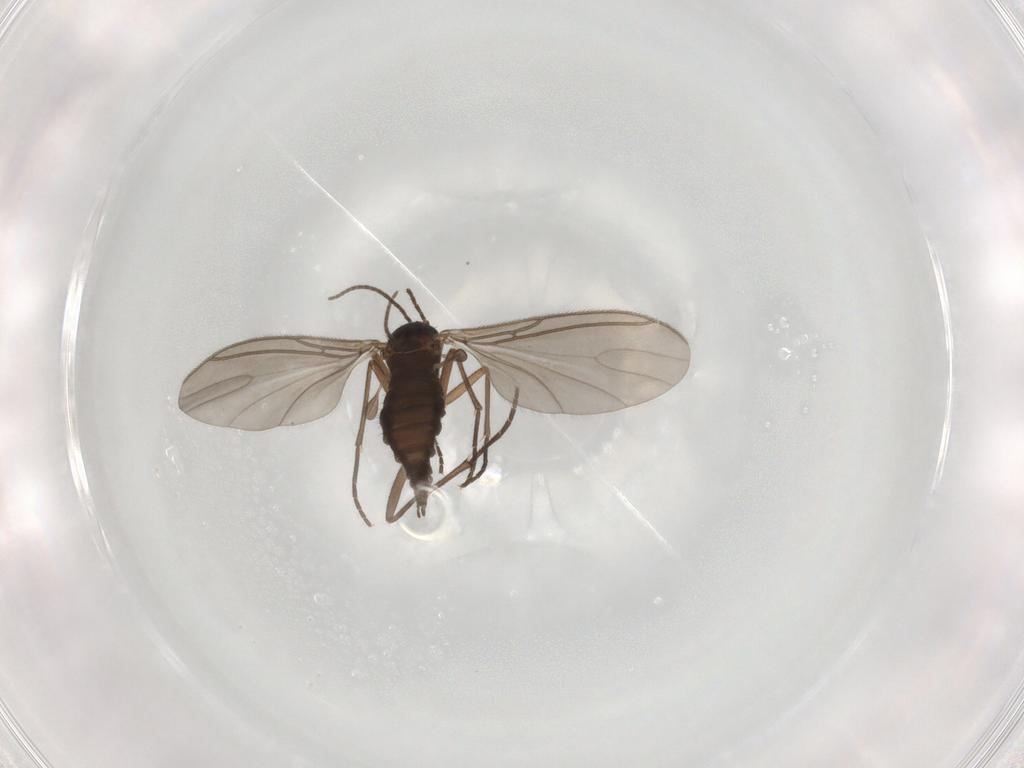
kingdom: Animalia
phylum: Arthropoda
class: Insecta
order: Diptera
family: Sciaridae
